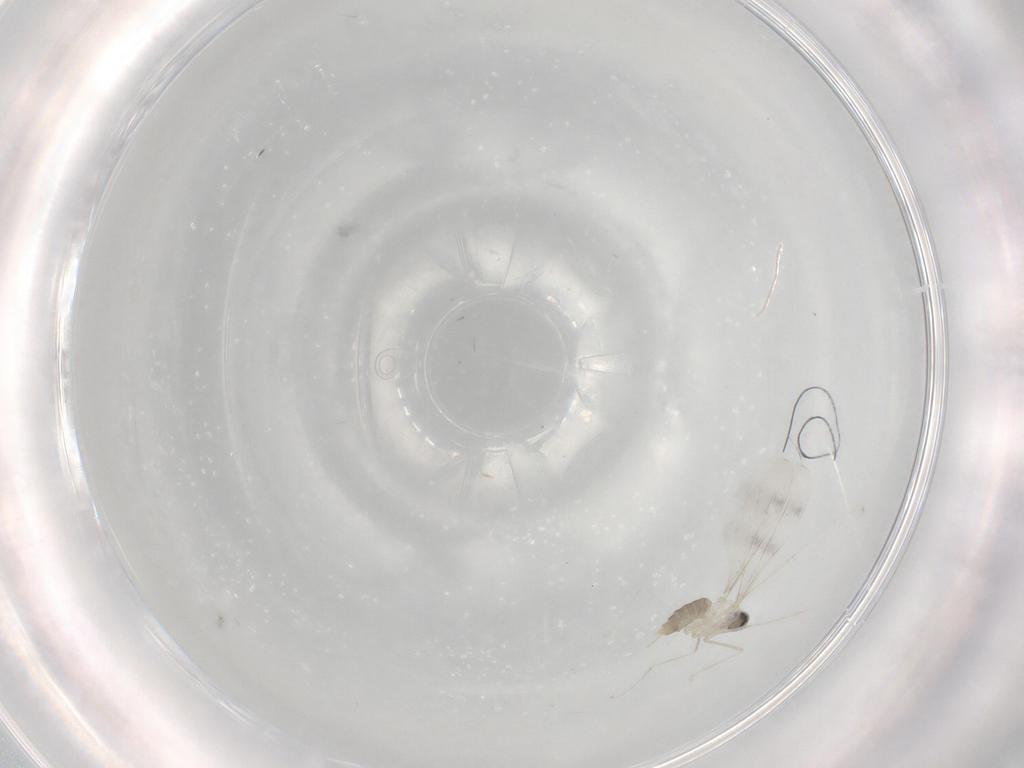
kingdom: Animalia
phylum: Arthropoda
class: Insecta
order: Diptera
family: Cecidomyiidae
